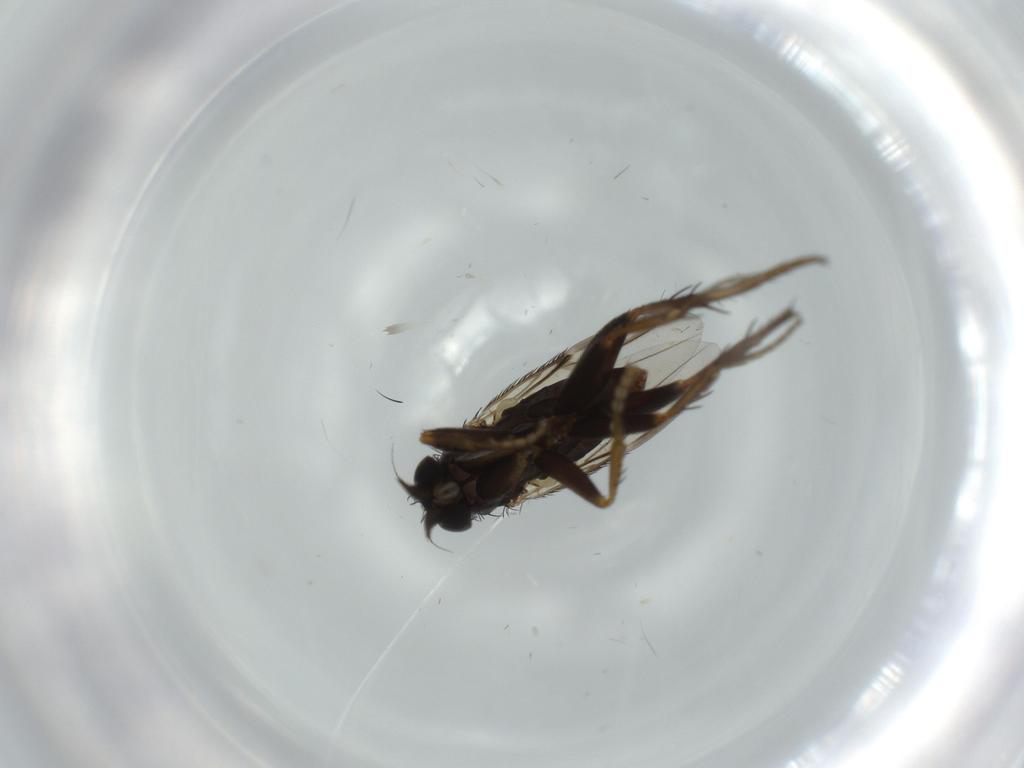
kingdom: Animalia
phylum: Arthropoda
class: Insecta
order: Diptera
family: Phoridae
